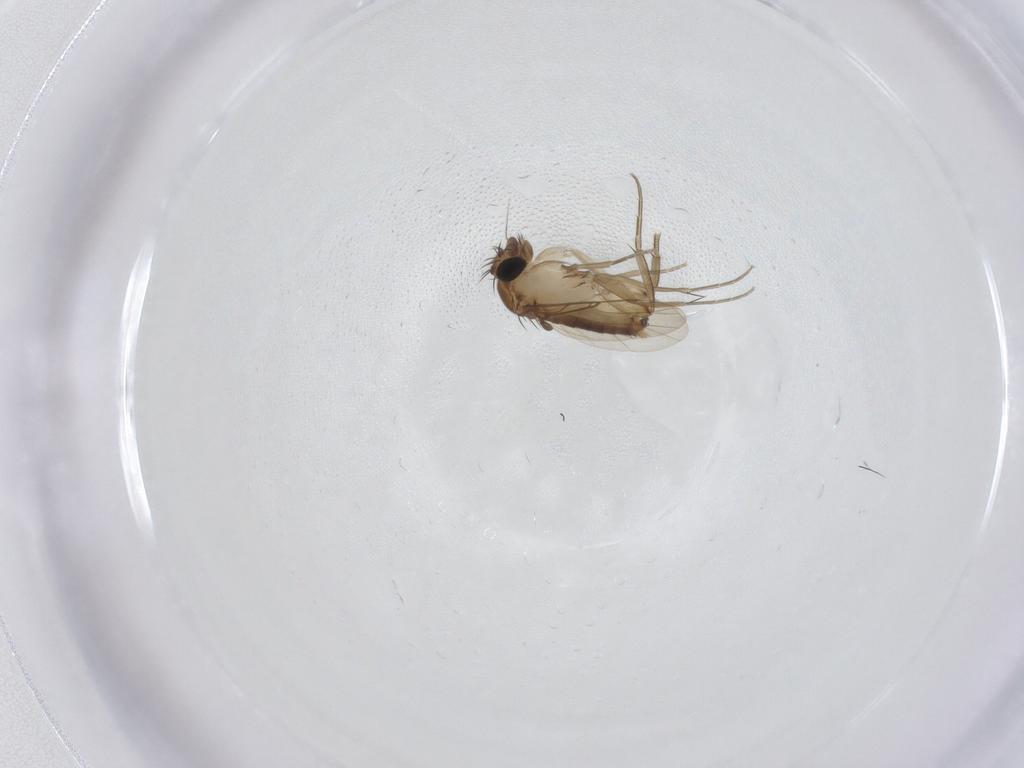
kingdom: Animalia
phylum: Arthropoda
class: Insecta
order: Diptera
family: Phoridae
